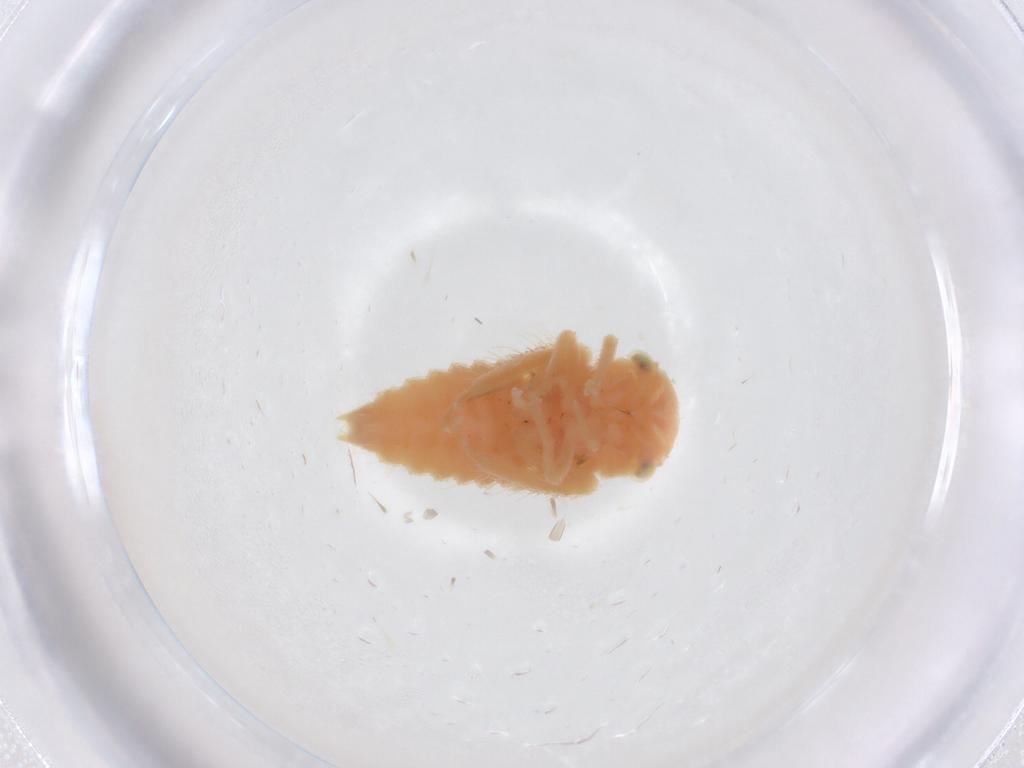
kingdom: Animalia
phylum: Arthropoda
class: Insecta
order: Hemiptera
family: Cicadellidae
